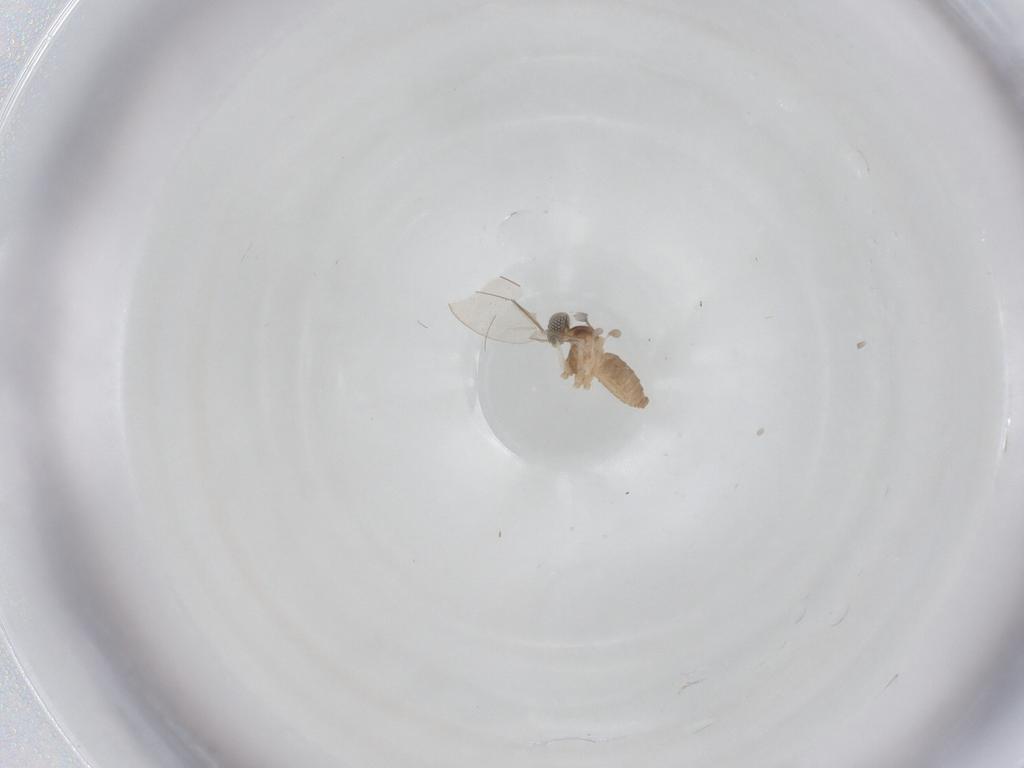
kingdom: Animalia
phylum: Arthropoda
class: Insecta
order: Diptera
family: Cecidomyiidae
